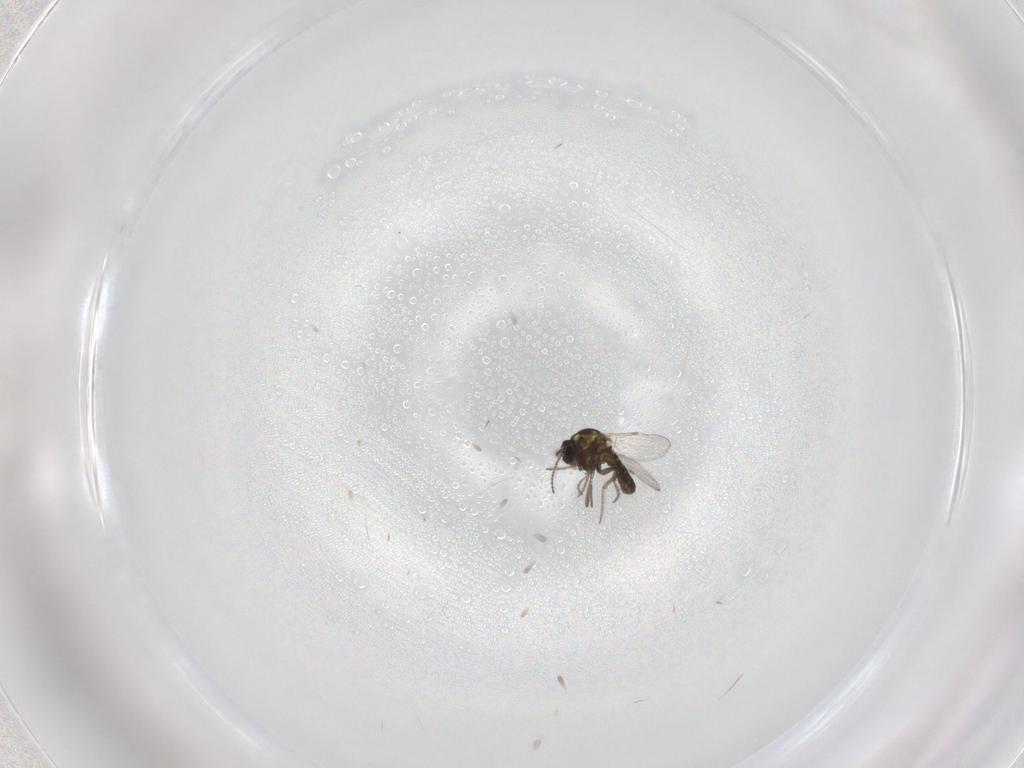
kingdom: Animalia
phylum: Arthropoda
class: Insecta
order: Diptera
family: Ceratopogonidae
